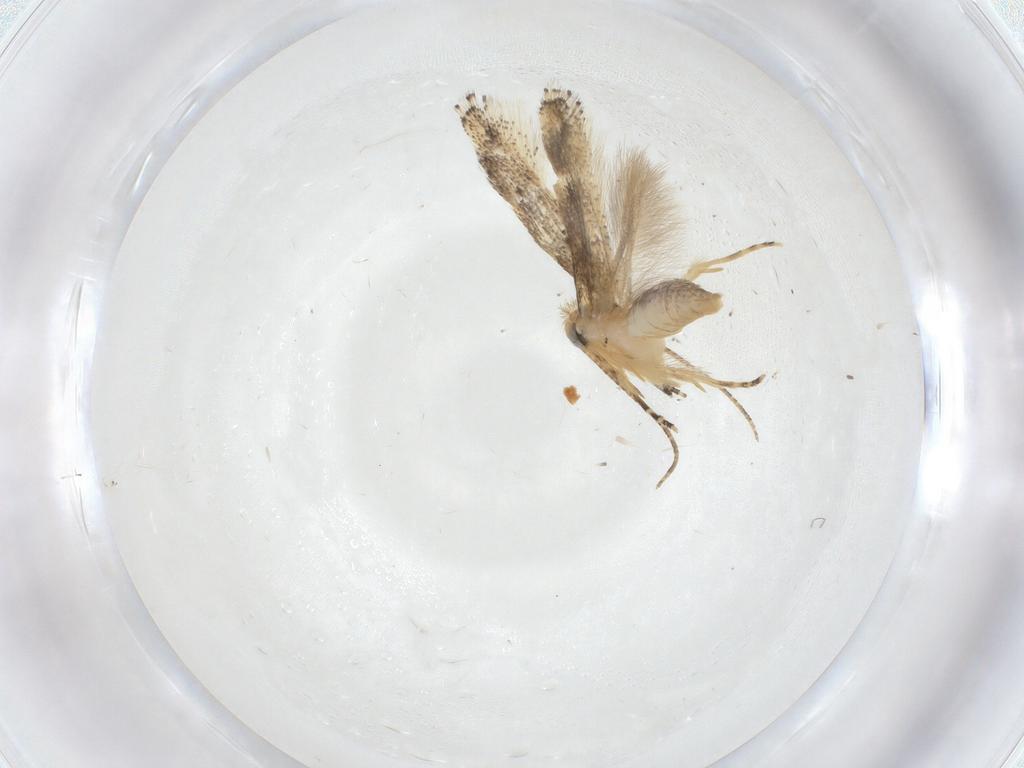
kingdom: Animalia
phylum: Arthropoda
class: Insecta
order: Lepidoptera
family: Bucculatricidae
